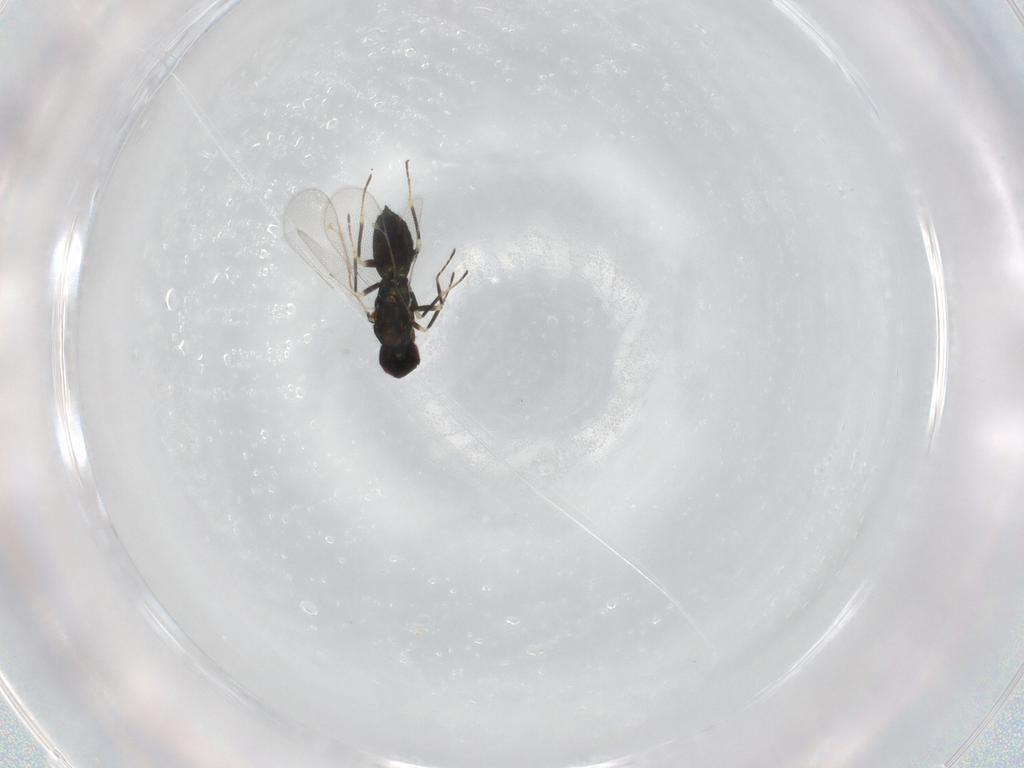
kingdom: Animalia
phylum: Arthropoda
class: Insecta
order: Hymenoptera
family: Eulophidae
